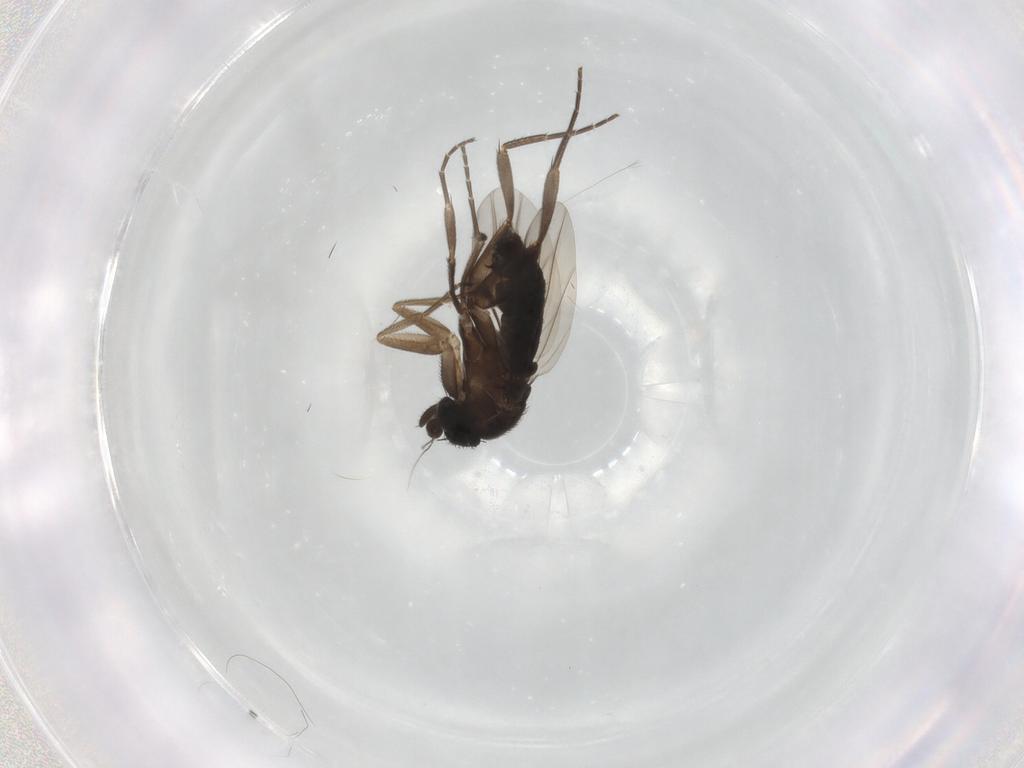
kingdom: Animalia
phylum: Arthropoda
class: Insecta
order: Diptera
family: Phoridae
